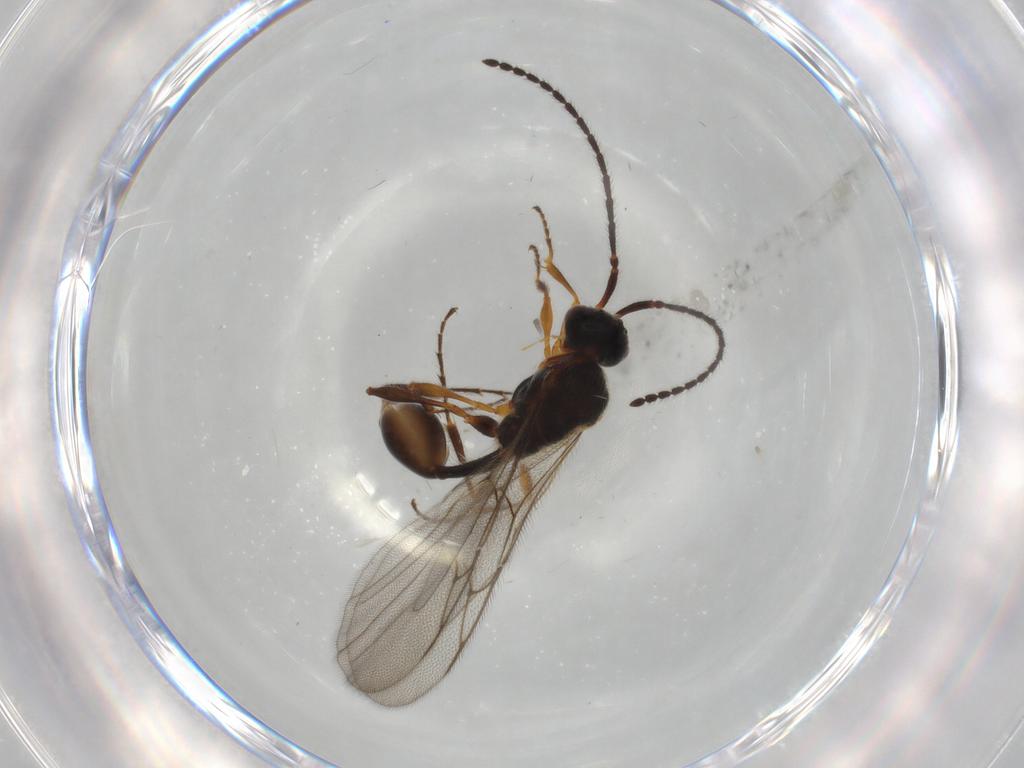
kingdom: Animalia
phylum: Arthropoda
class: Insecta
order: Hymenoptera
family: Diapriidae
